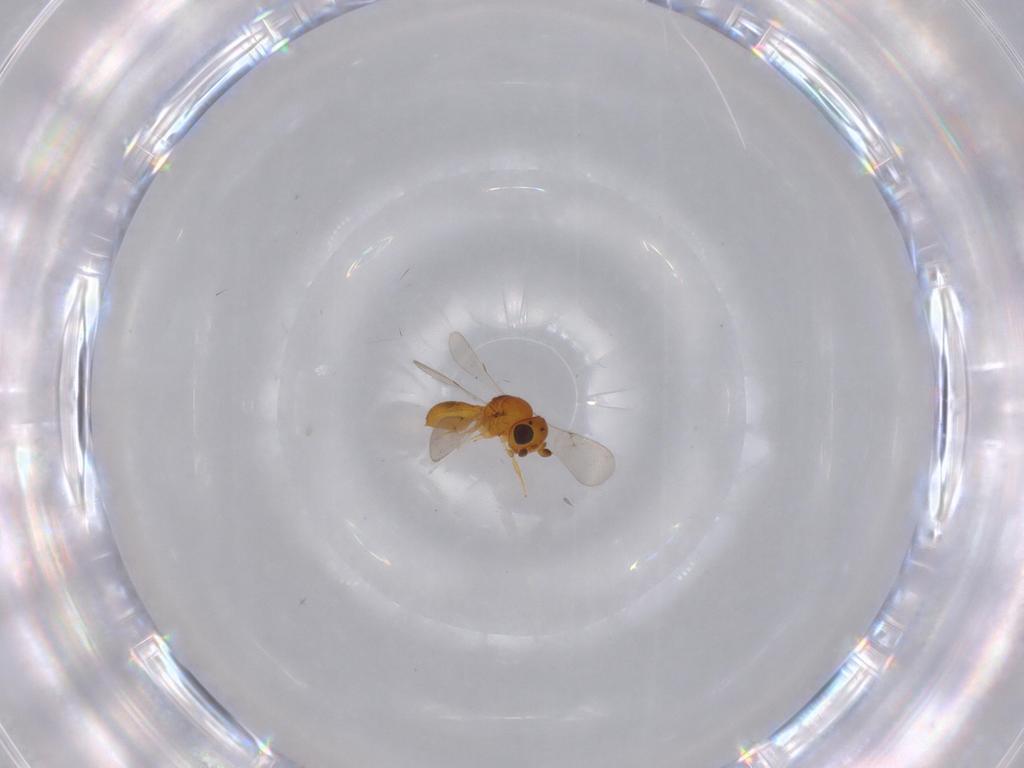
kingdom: Animalia
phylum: Arthropoda
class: Insecta
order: Hymenoptera
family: Scelionidae
